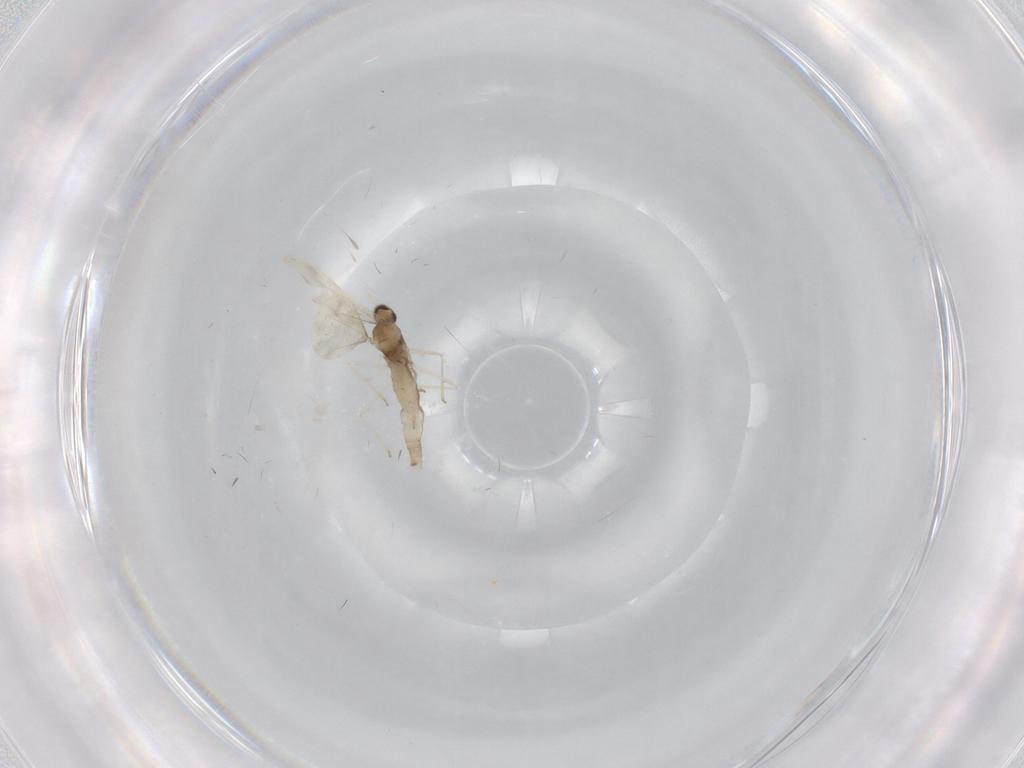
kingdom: Animalia
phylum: Arthropoda
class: Insecta
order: Diptera
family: Cecidomyiidae
